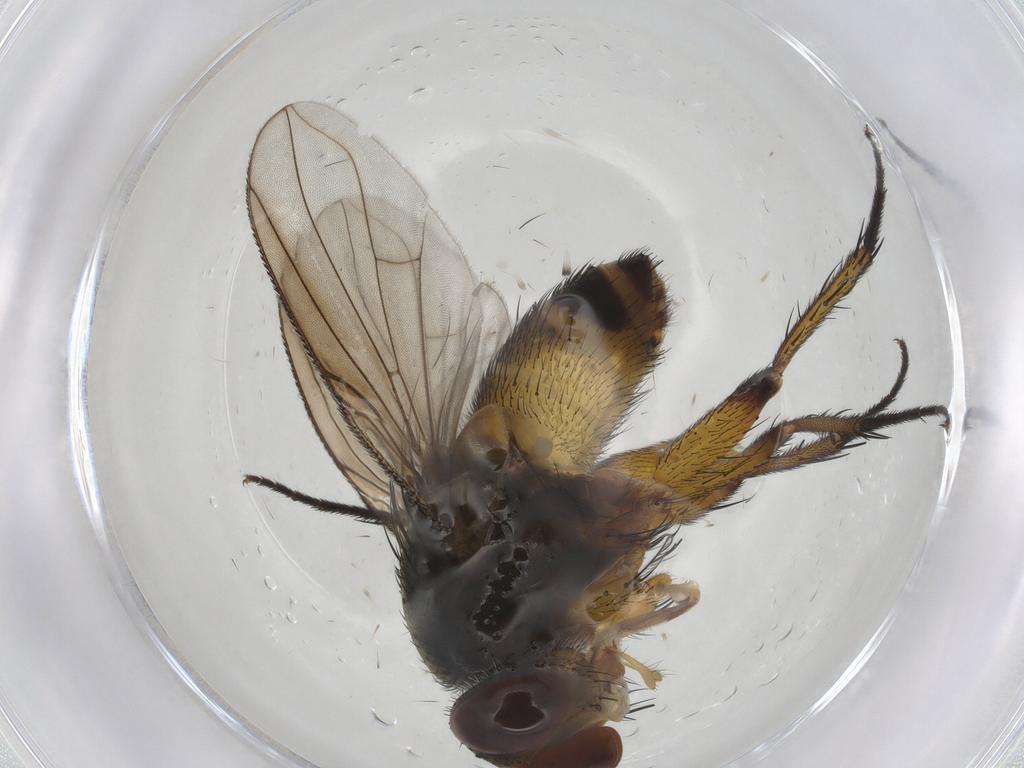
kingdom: Animalia
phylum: Arthropoda
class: Insecta
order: Diptera
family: Tachinidae
